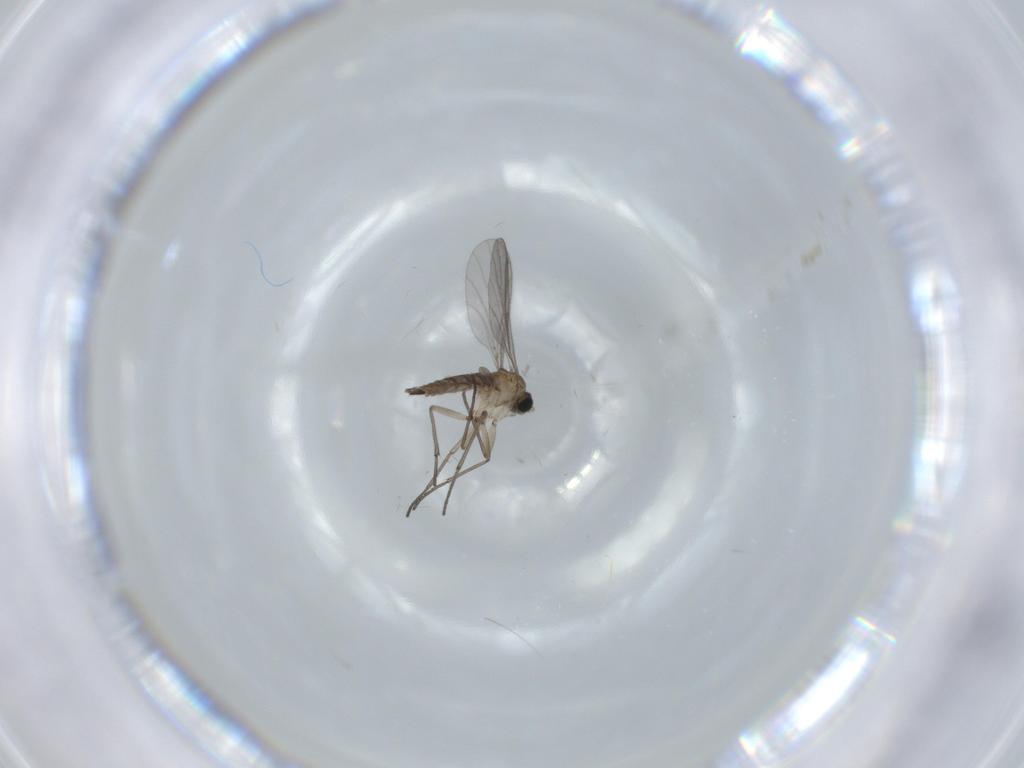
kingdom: Animalia
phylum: Arthropoda
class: Insecta
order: Diptera
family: Sciaridae
